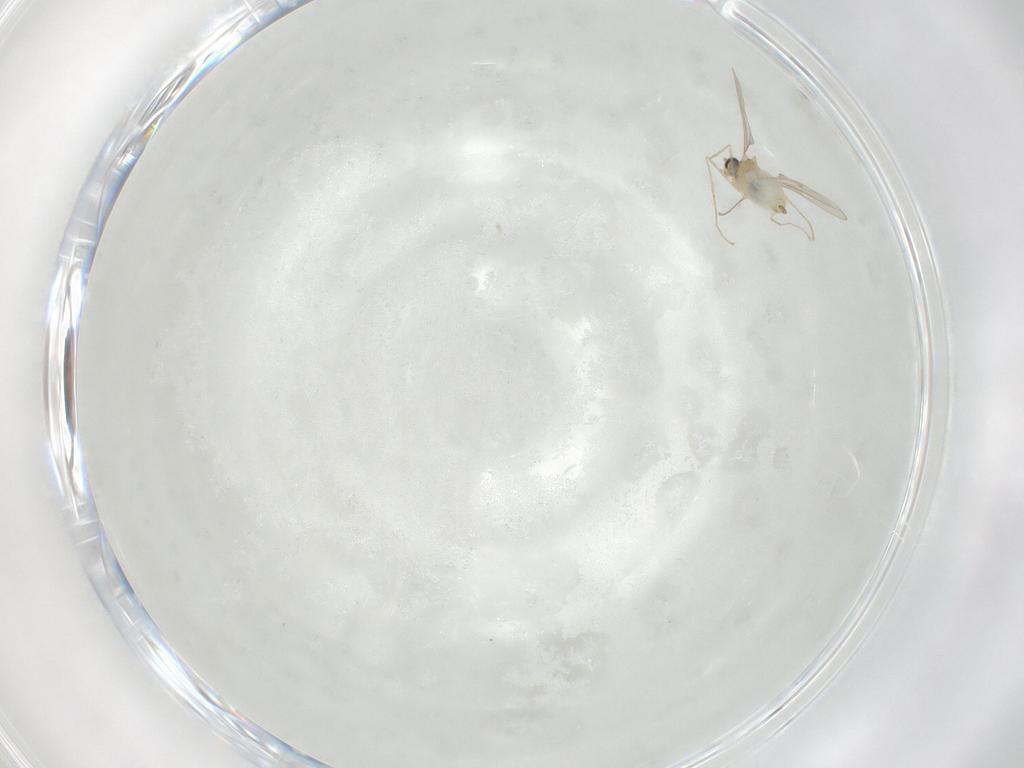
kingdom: Animalia
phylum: Arthropoda
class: Insecta
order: Diptera
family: Cecidomyiidae
